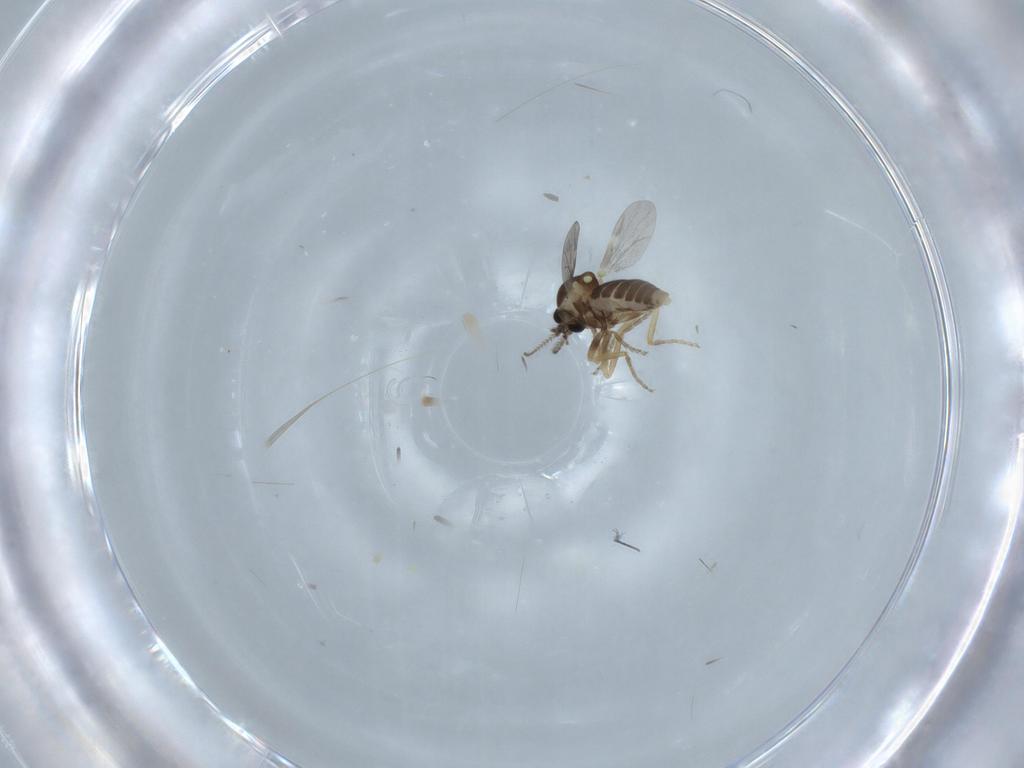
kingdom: Animalia
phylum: Arthropoda
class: Insecta
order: Diptera
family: Ceratopogonidae
